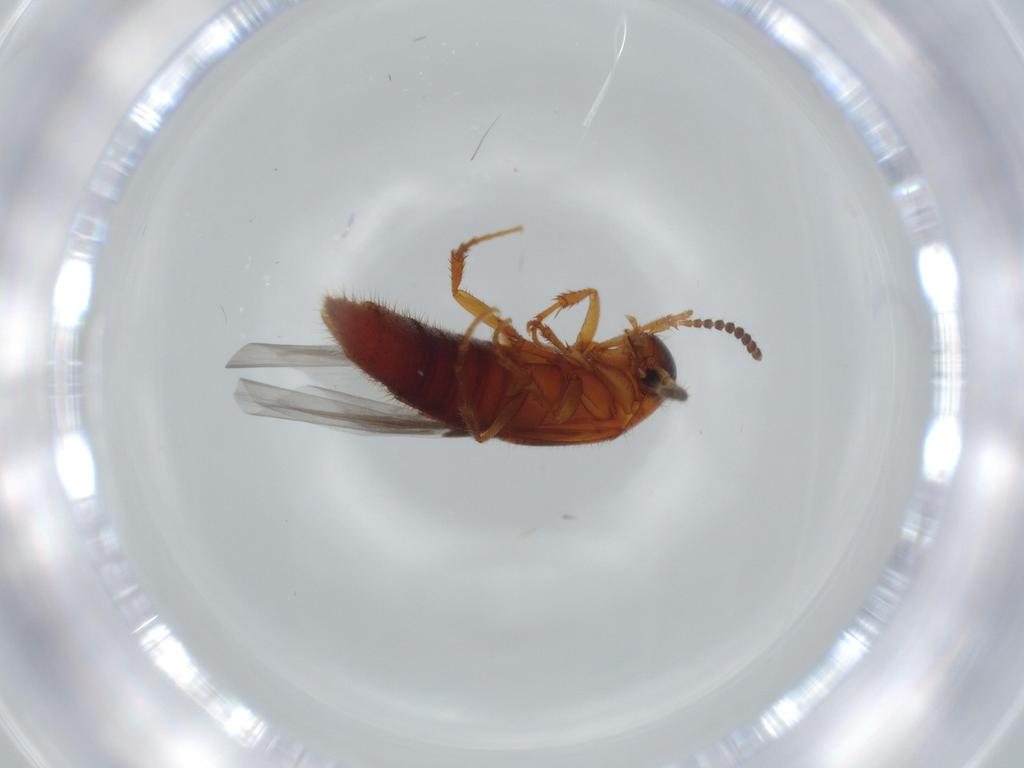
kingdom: Animalia
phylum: Arthropoda
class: Insecta
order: Coleoptera
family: Staphylinidae
